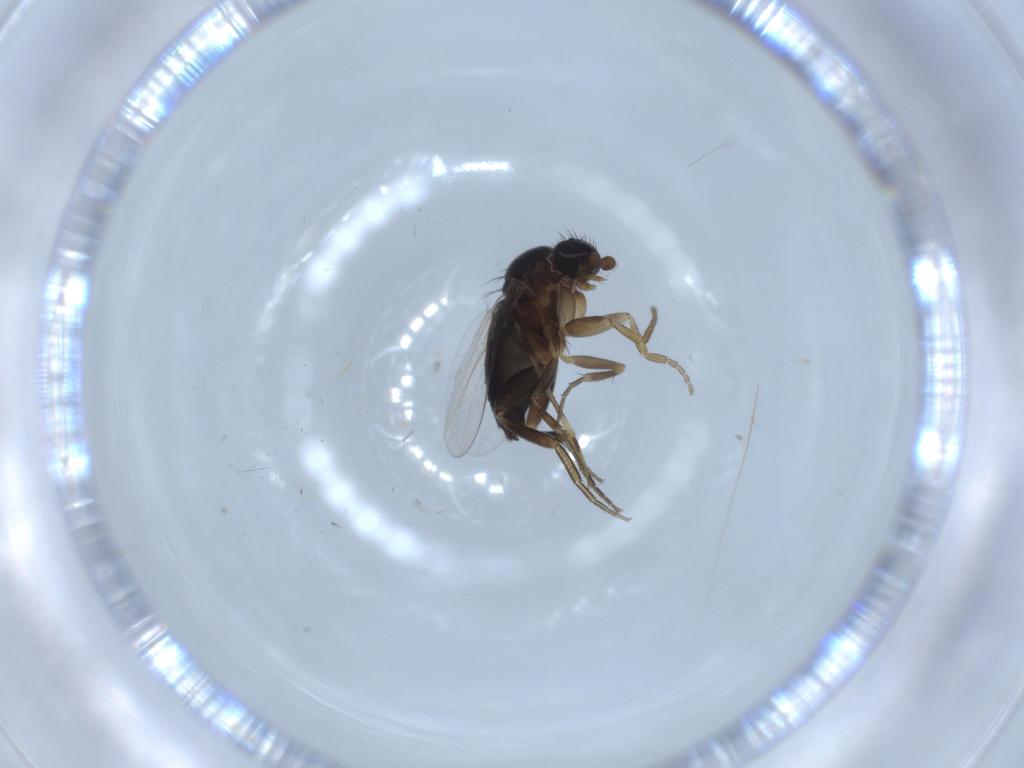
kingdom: Animalia
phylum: Arthropoda
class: Insecta
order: Diptera
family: Phoridae
